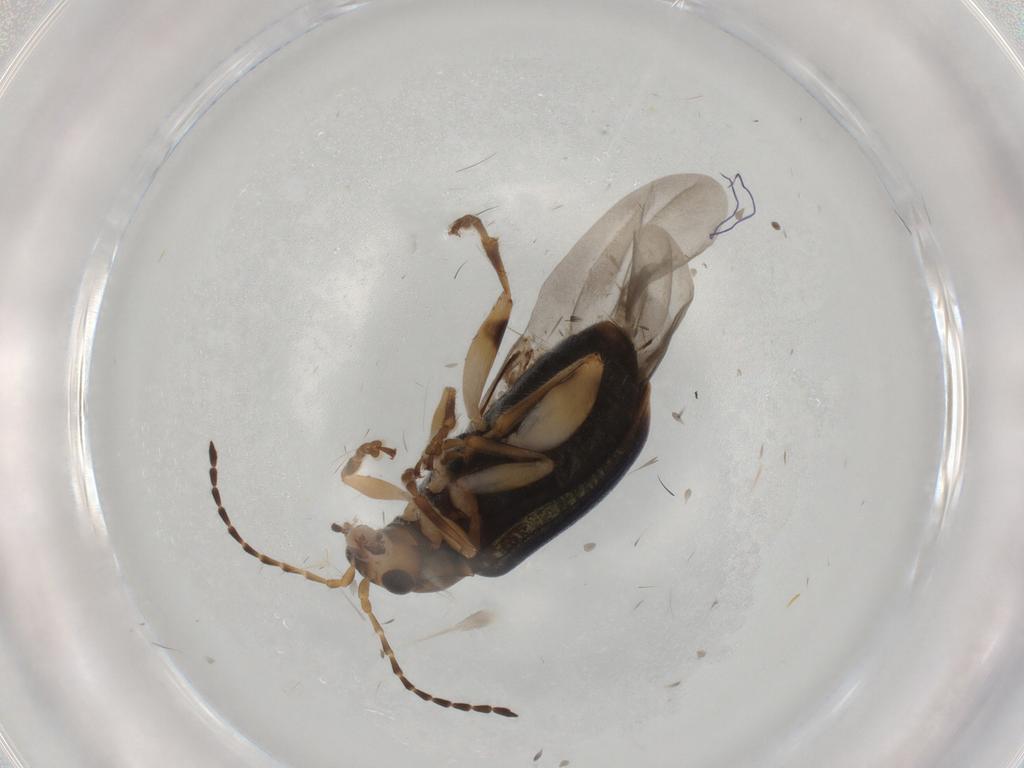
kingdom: Animalia
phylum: Arthropoda
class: Insecta
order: Coleoptera
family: Chrysomelidae
